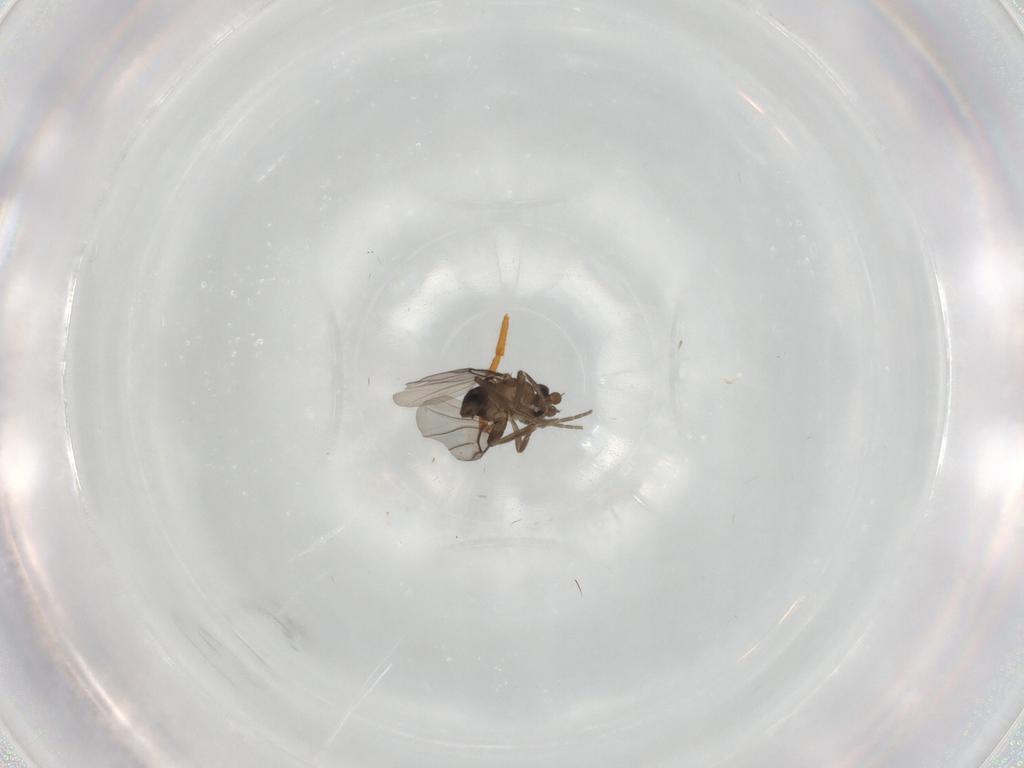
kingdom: Animalia
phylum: Arthropoda
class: Insecta
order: Diptera
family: Phoridae
